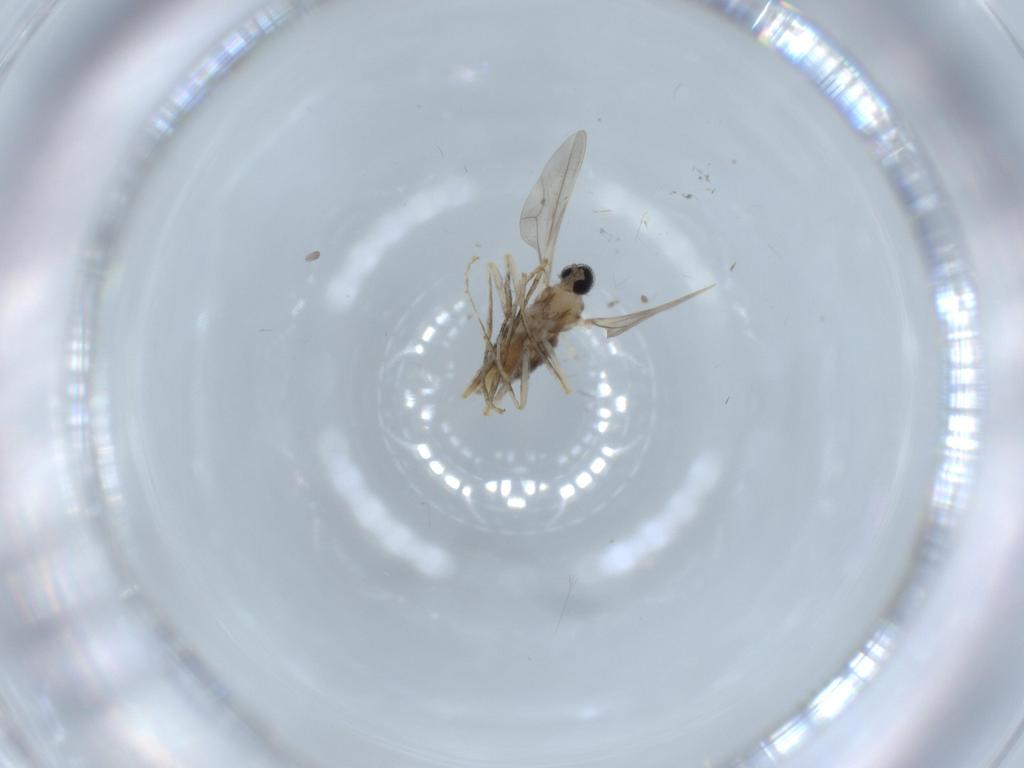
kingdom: Animalia
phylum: Arthropoda
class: Insecta
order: Diptera
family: Cecidomyiidae
